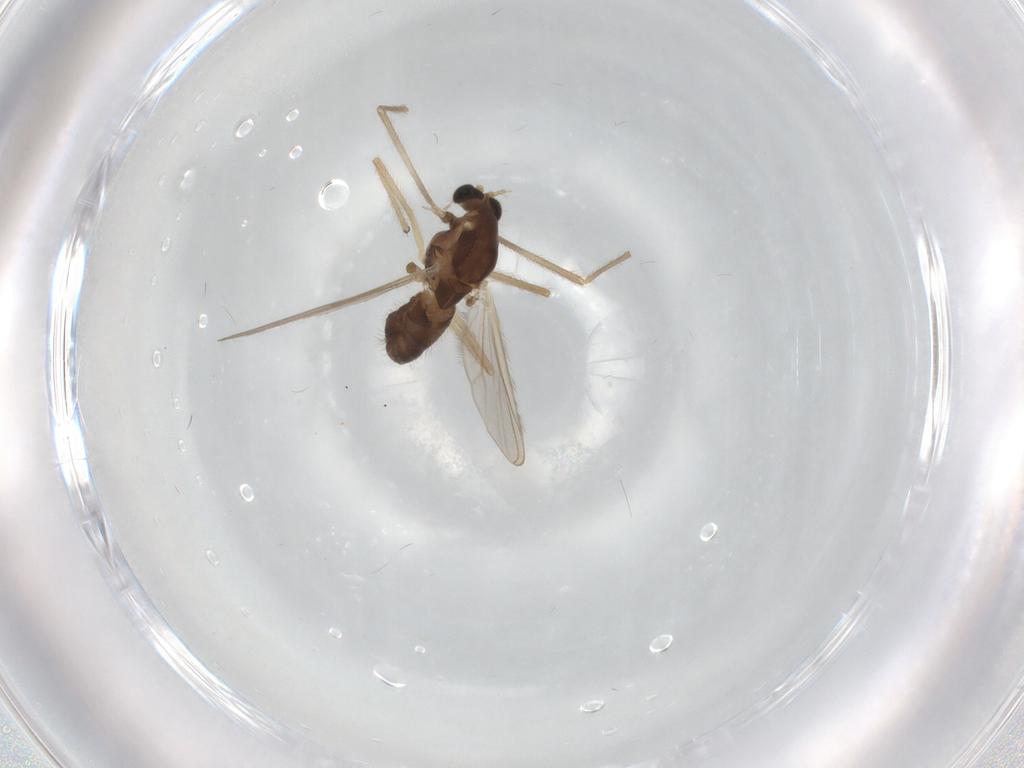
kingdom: Animalia
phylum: Arthropoda
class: Insecta
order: Diptera
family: Chironomidae
